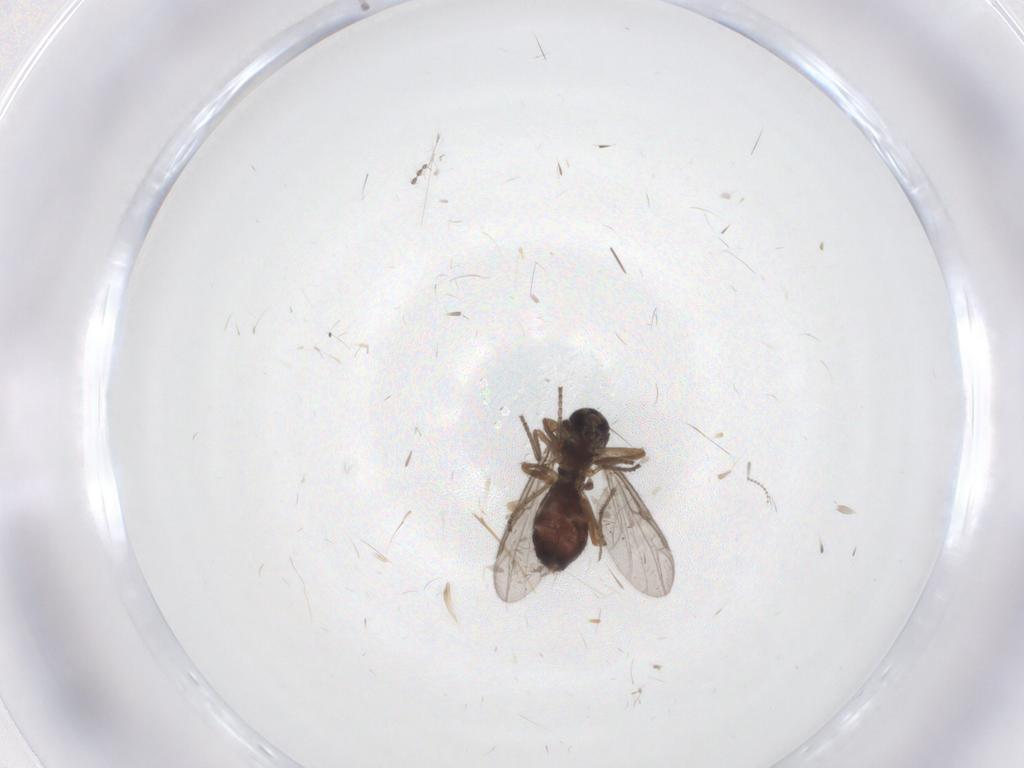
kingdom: Animalia
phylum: Arthropoda
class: Insecta
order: Diptera
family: Ceratopogonidae
